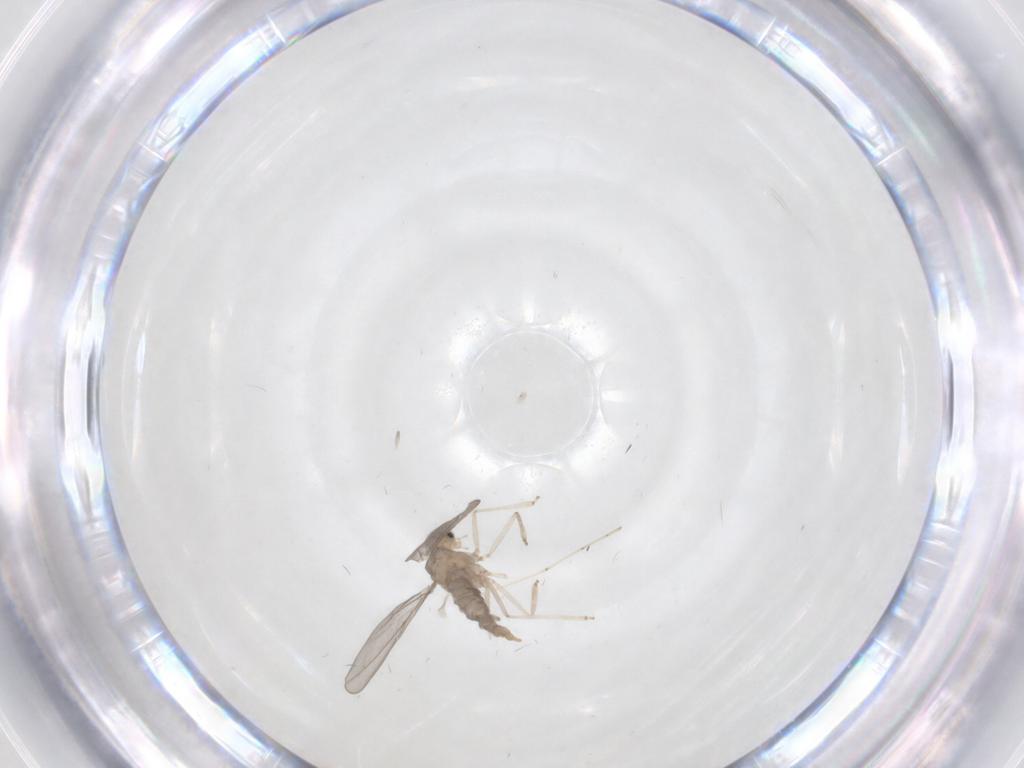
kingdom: Animalia
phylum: Arthropoda
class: Insecta
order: Diptera
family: Cecidomyiidae
